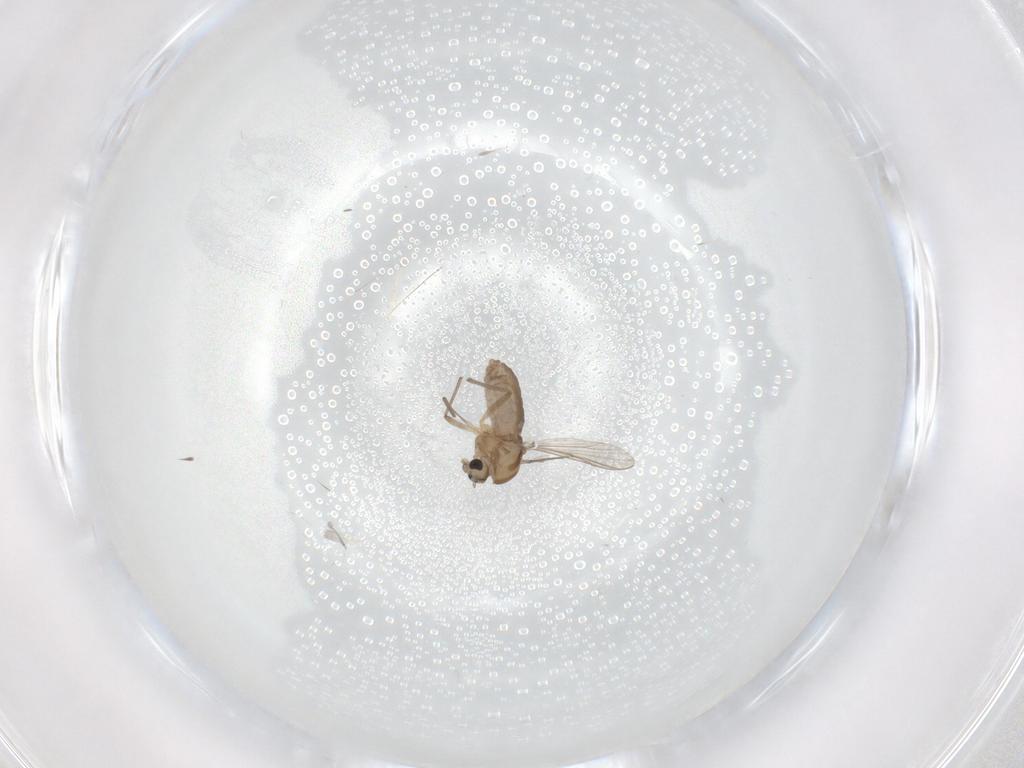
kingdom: Animalia
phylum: Arthropoda
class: Insecta
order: Diptera
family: Chironomidae
